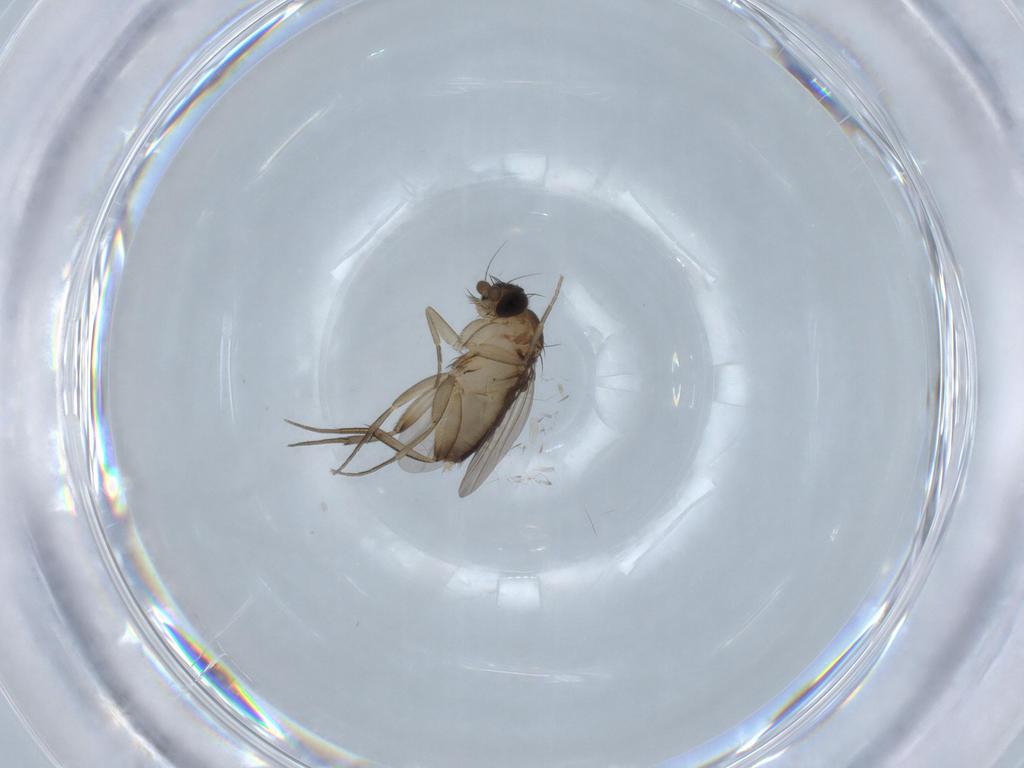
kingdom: Animalia
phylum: Arthropoda
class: Insecta
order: Diptera
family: Phoridae
